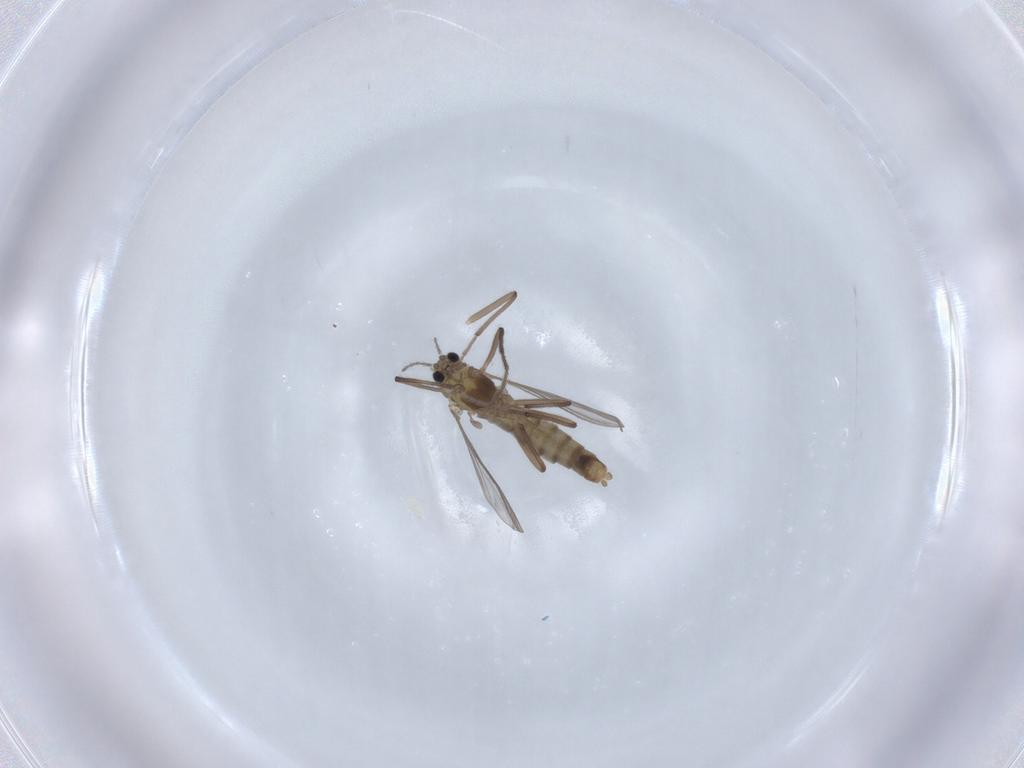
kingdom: Animalia
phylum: Arthropoda
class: Insecta
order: Diptera
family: Chironomidae
